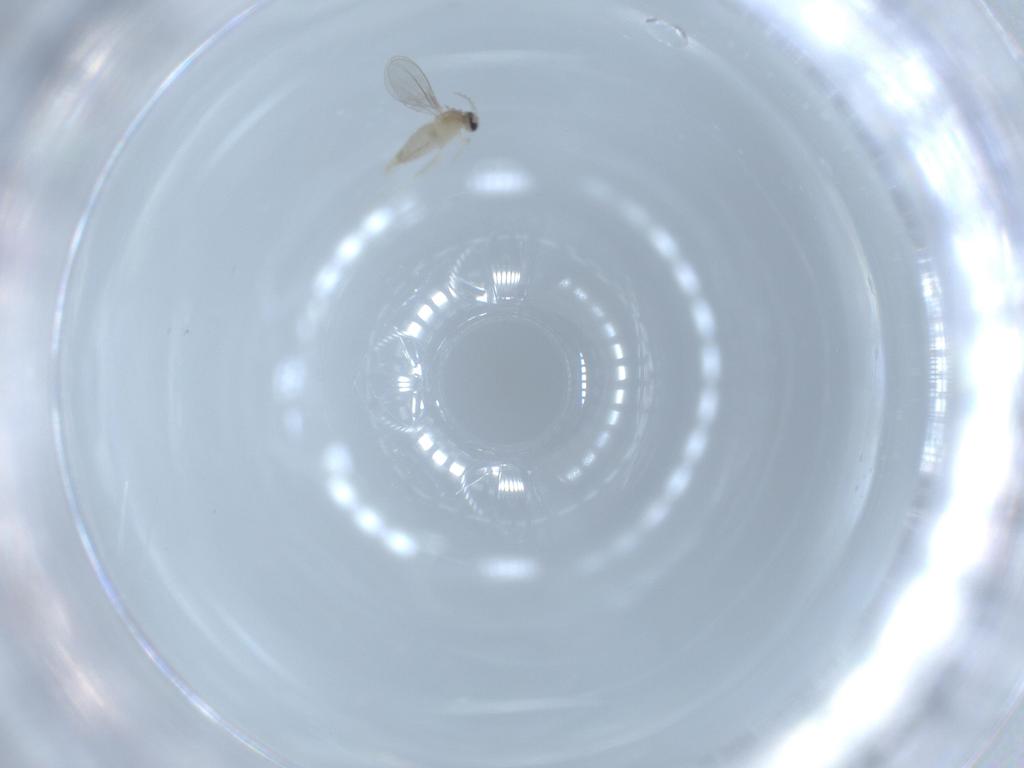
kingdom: Animalia
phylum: Arthropoda
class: Insecta
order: Diptera
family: Cecidomyiidae
